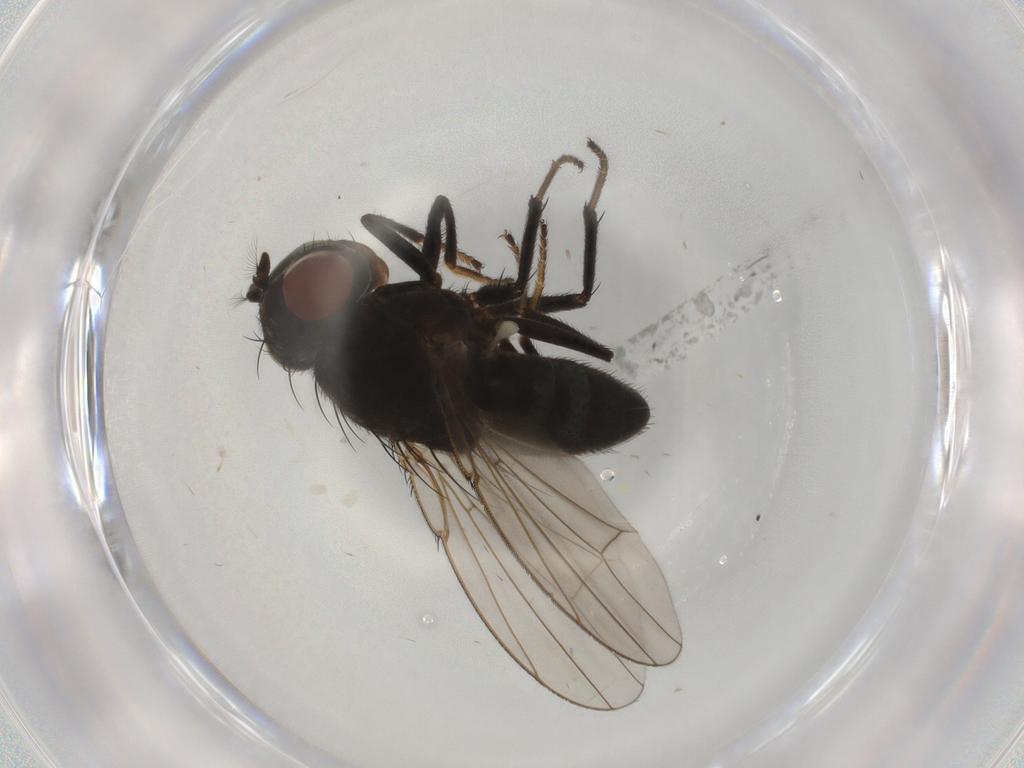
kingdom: Animalia
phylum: Arthropoda
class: Insecta
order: Diptera
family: Ephydridae
